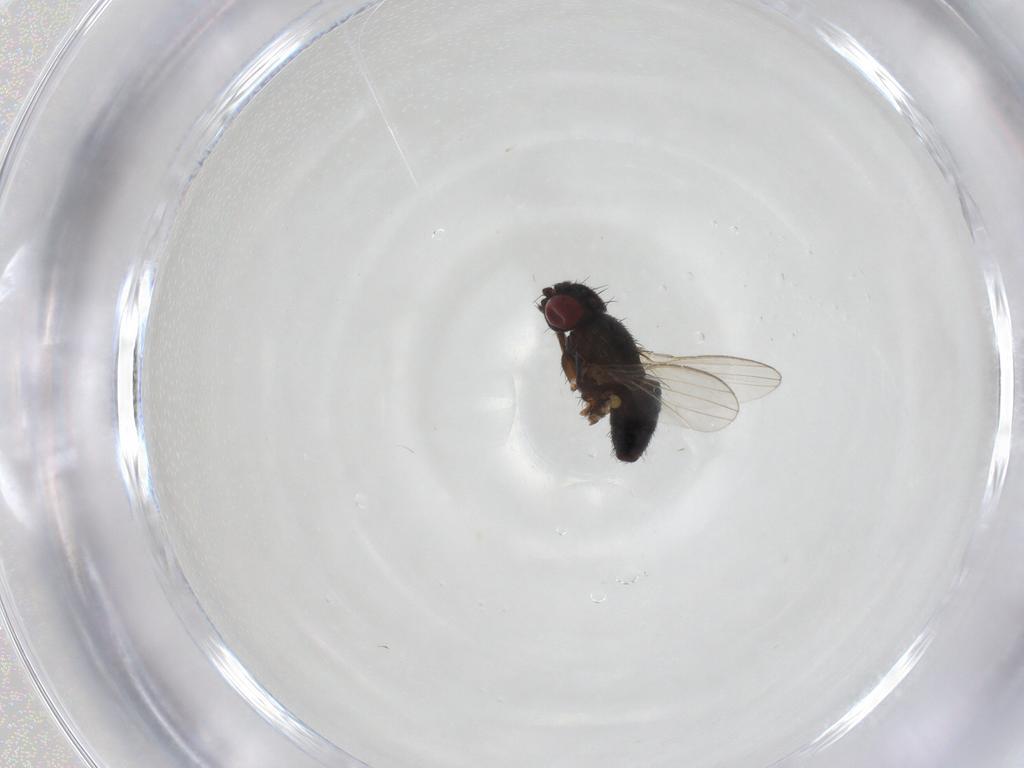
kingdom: Animalia
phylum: Arthropoda
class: Insecta
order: Diptera
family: Milichiidae
